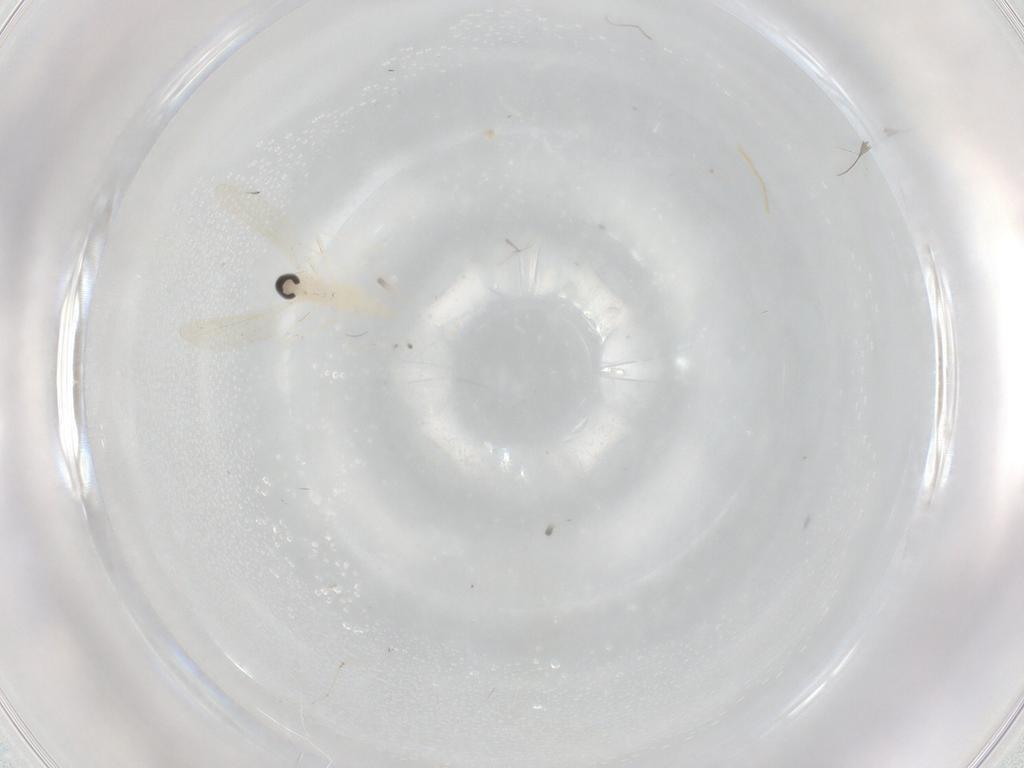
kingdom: Animalia
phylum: Arthropoda
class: Insecta
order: Diptera
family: Cecidomyiidae
